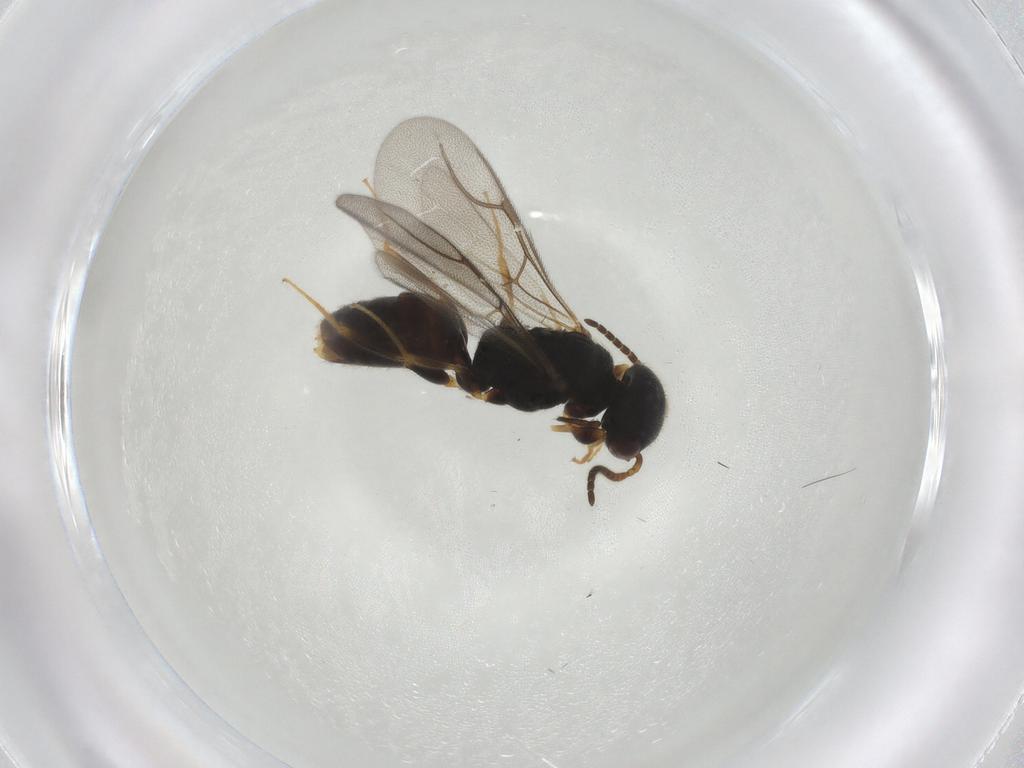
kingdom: Animalia
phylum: Arthropoda
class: Insecta
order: Hymenoptera
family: Bethylidae
